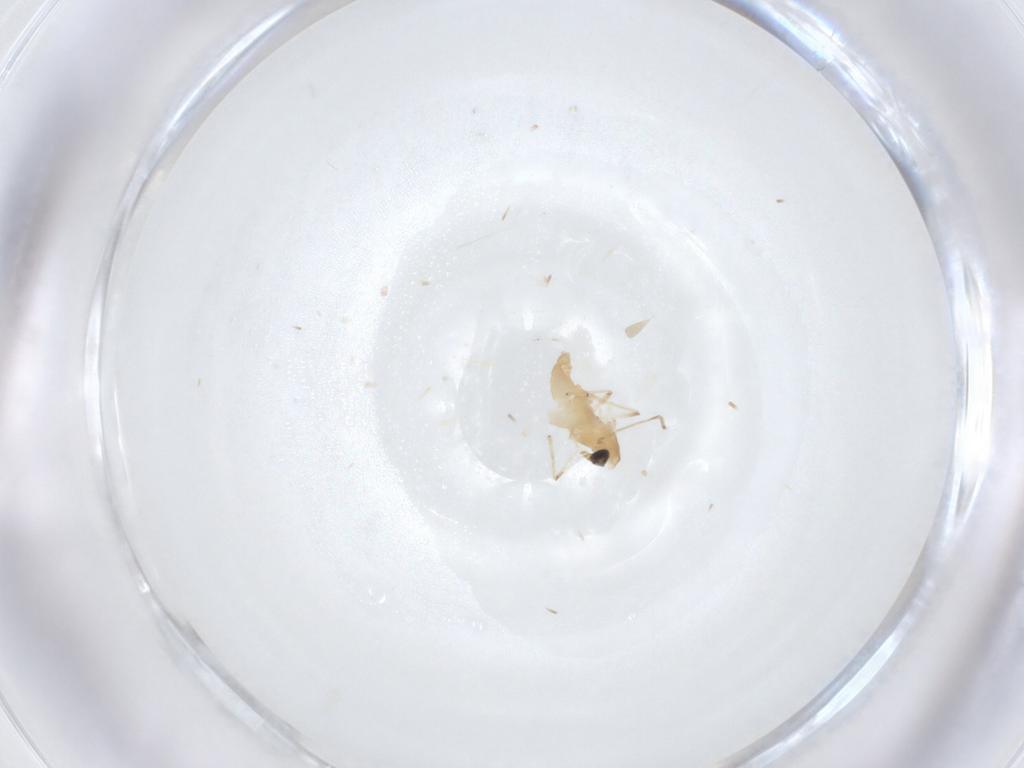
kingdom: Animalia
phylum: Arthropoda
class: Insecta
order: Diptera
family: Chironomidae
